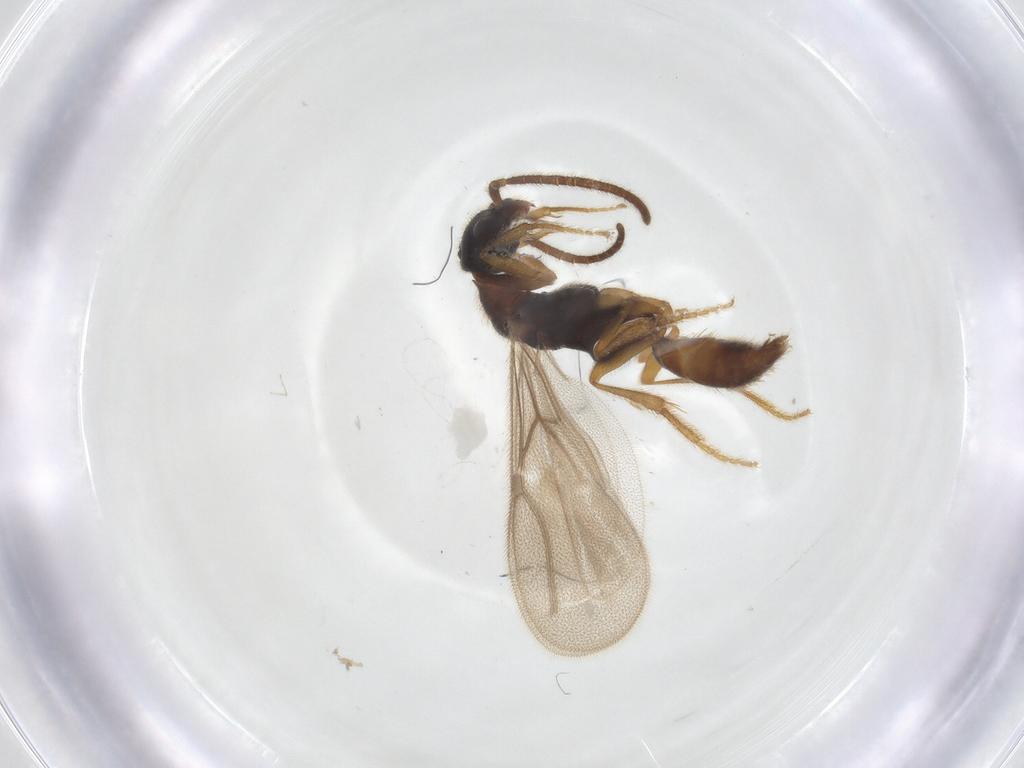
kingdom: Animalia
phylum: Arthropoda
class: Insecta
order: Hymenoptera
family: Bethylidae
